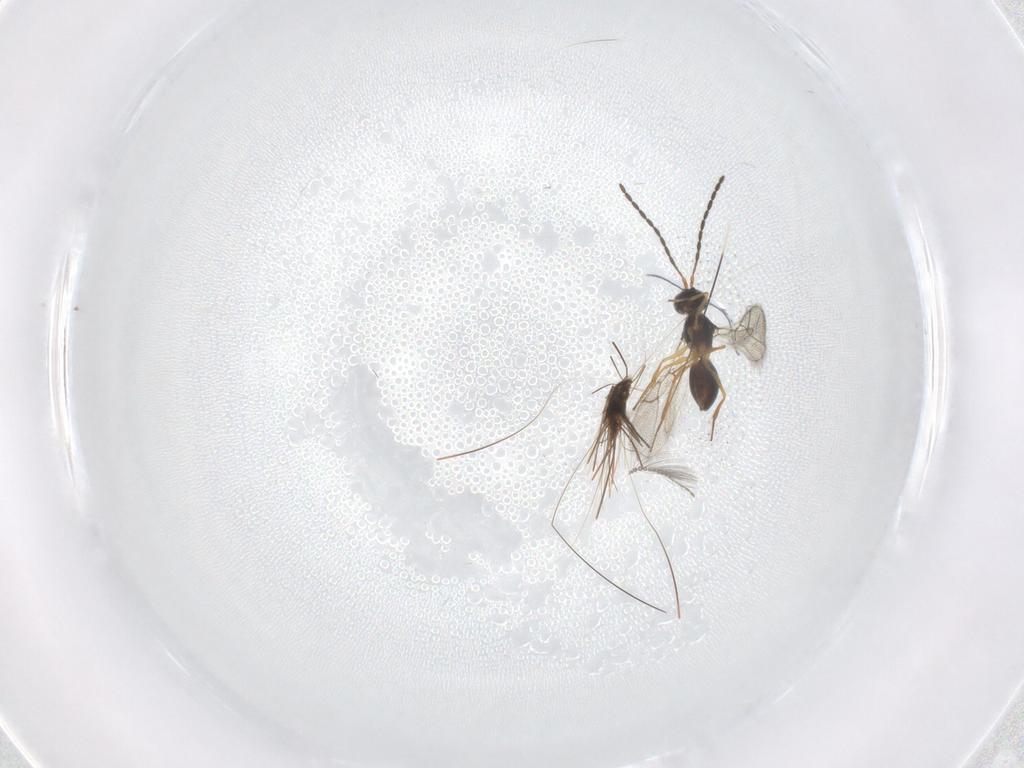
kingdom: Animalia
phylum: Arthropoda
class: Insecta
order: Hymenoptera
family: Figitidae
